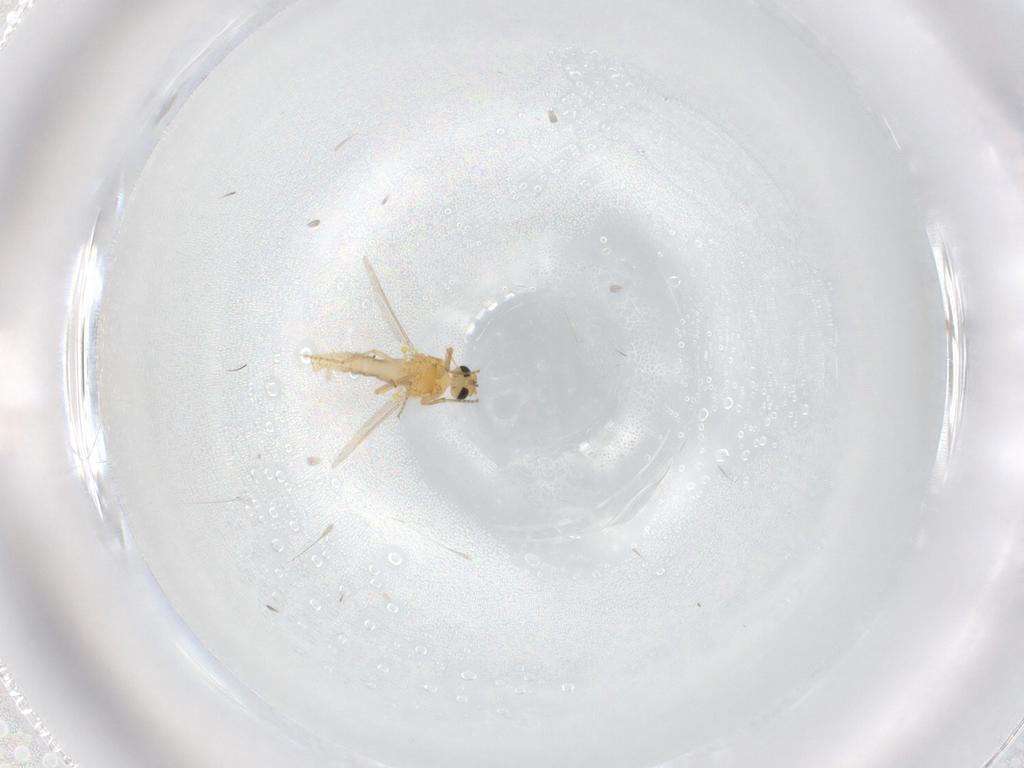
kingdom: Animalia
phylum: Arthropoda
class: Insecta
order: Diptera
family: Ceratopogonidae
